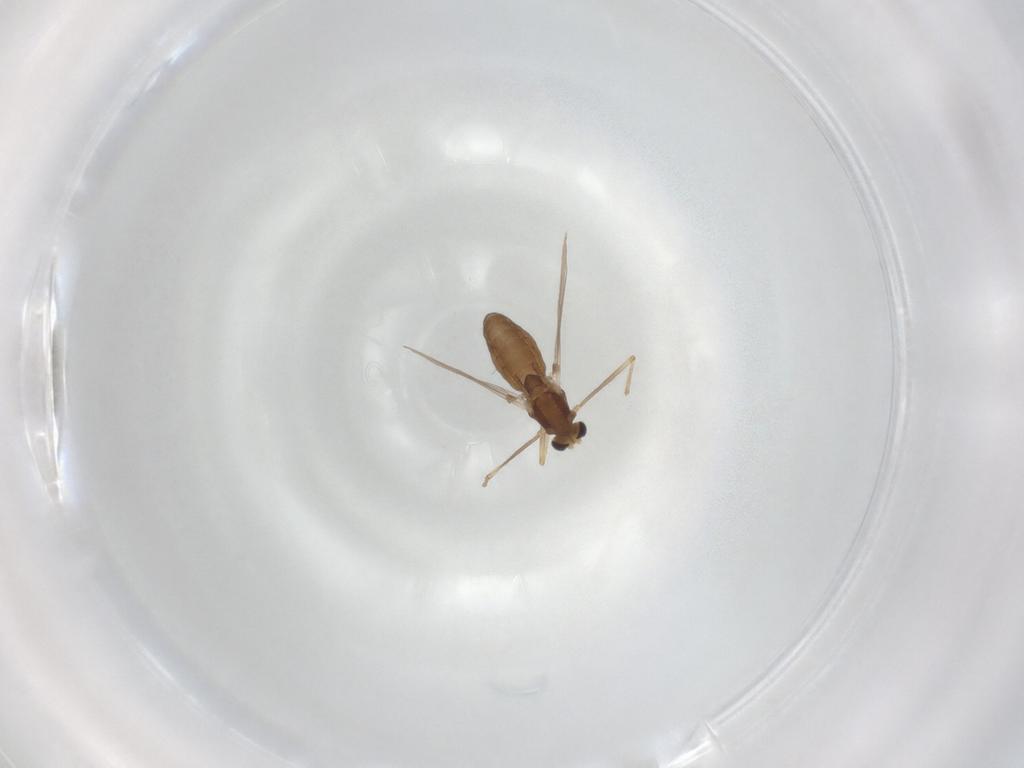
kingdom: Animalia
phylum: Arthropoda
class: Insecta
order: Diptera
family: Chironomidae
